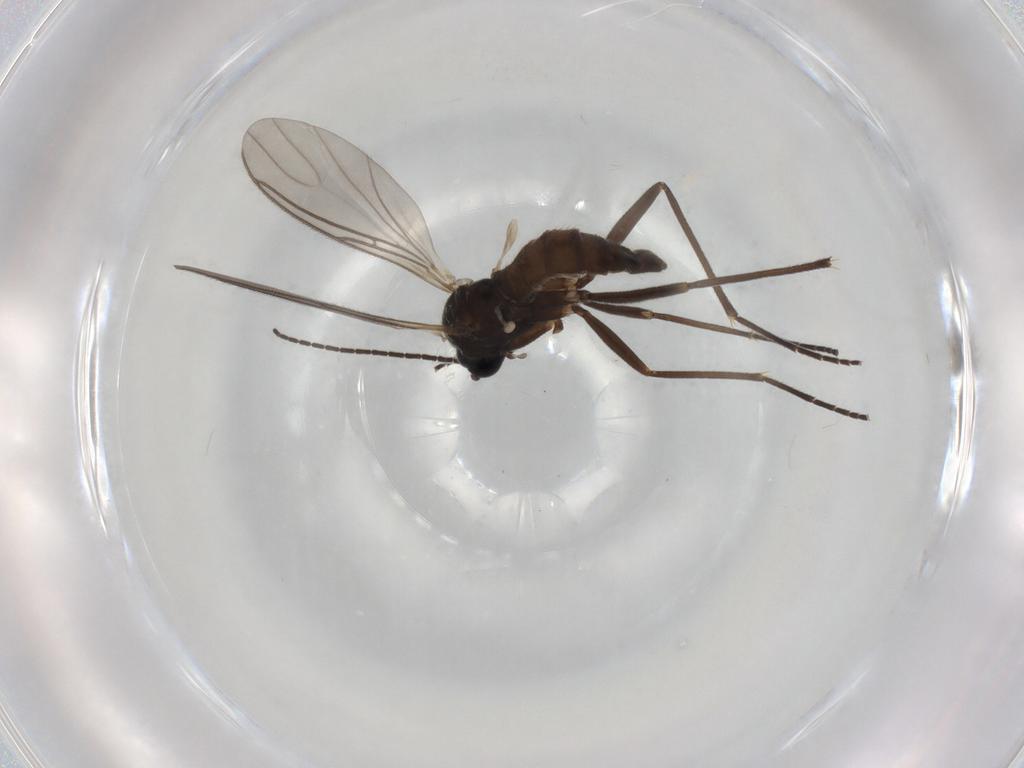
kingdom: Animalia
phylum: Arthropoda
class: Insecta
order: Diptera
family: Sciaridae
